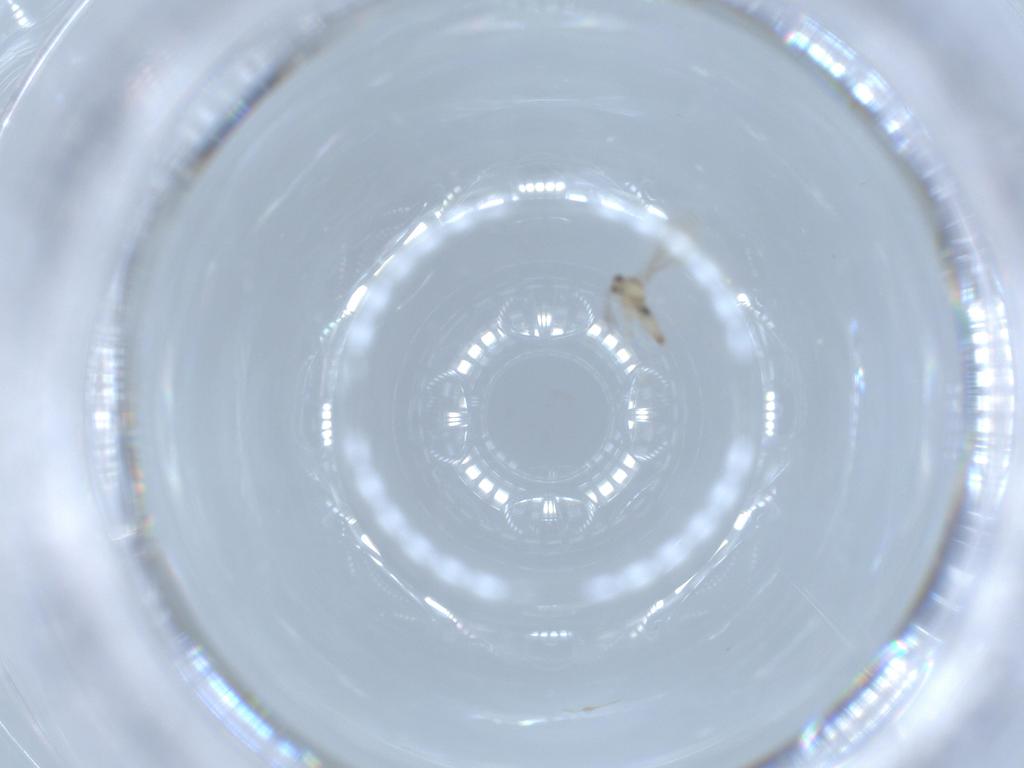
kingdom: Animalia
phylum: Arthropoda
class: Insecta
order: Diptera
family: Cecidomyiidae
